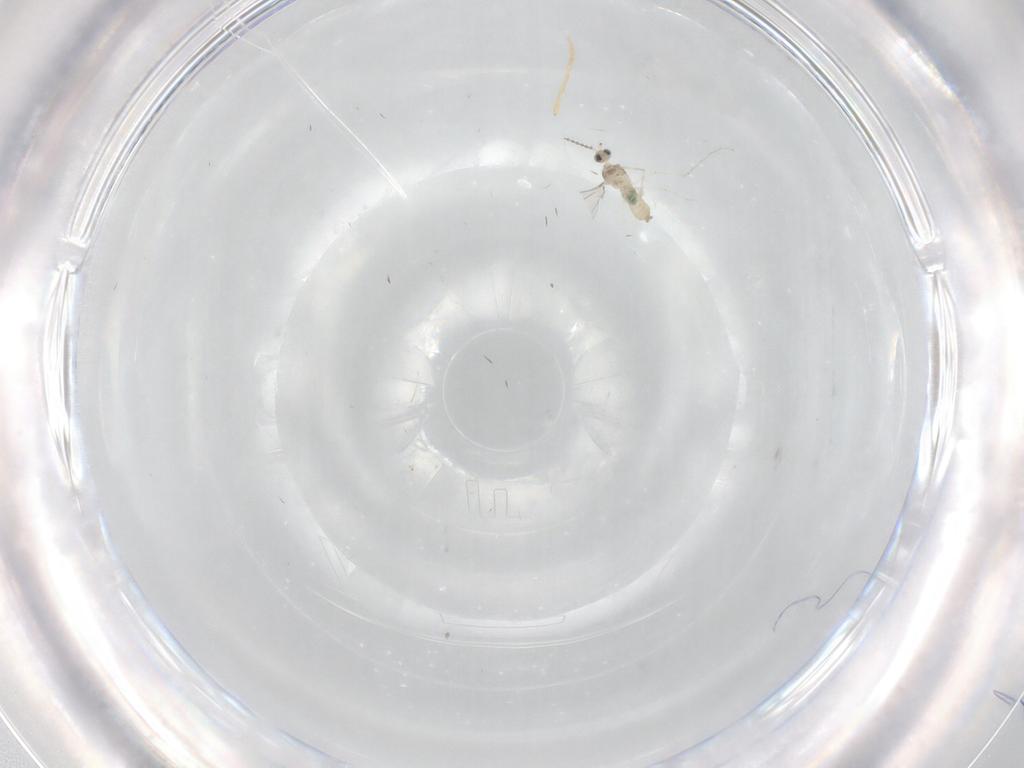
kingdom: Animalia
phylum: Arthropoda
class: Insecta
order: Diptera
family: Cecidomyiidae
